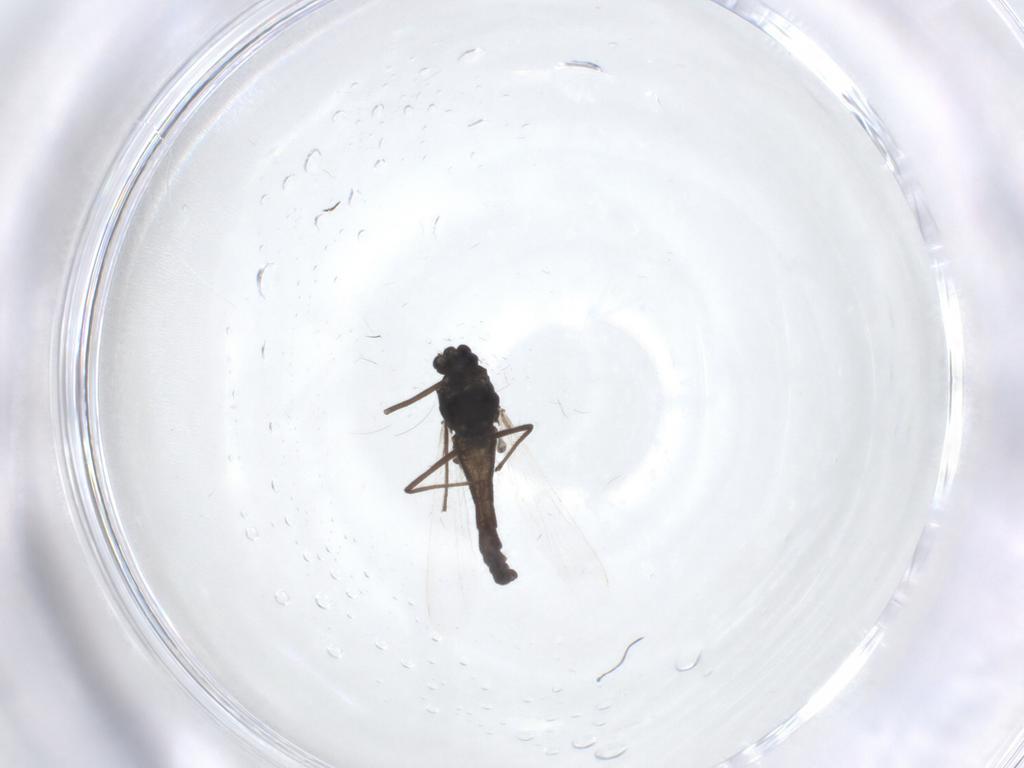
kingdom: Animalia
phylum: Arthropoda
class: Insecta
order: Diptera
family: Chironomidae
